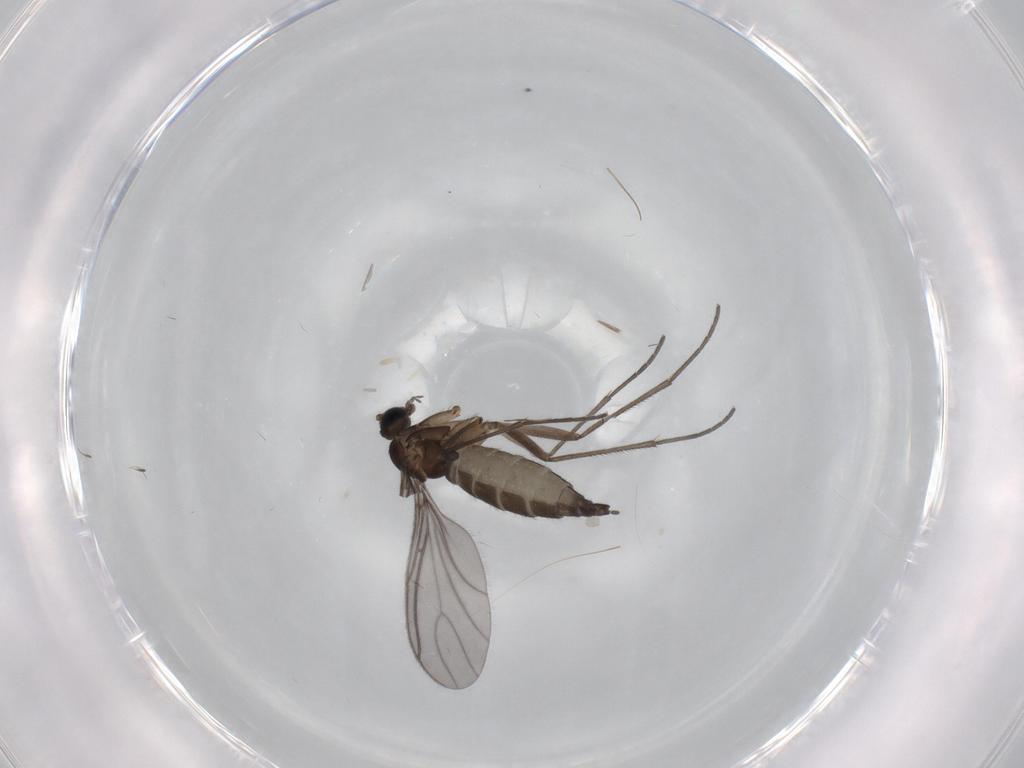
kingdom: Animalia
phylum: Arthropoda
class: Insecta
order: Diptera
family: Sciaridae
